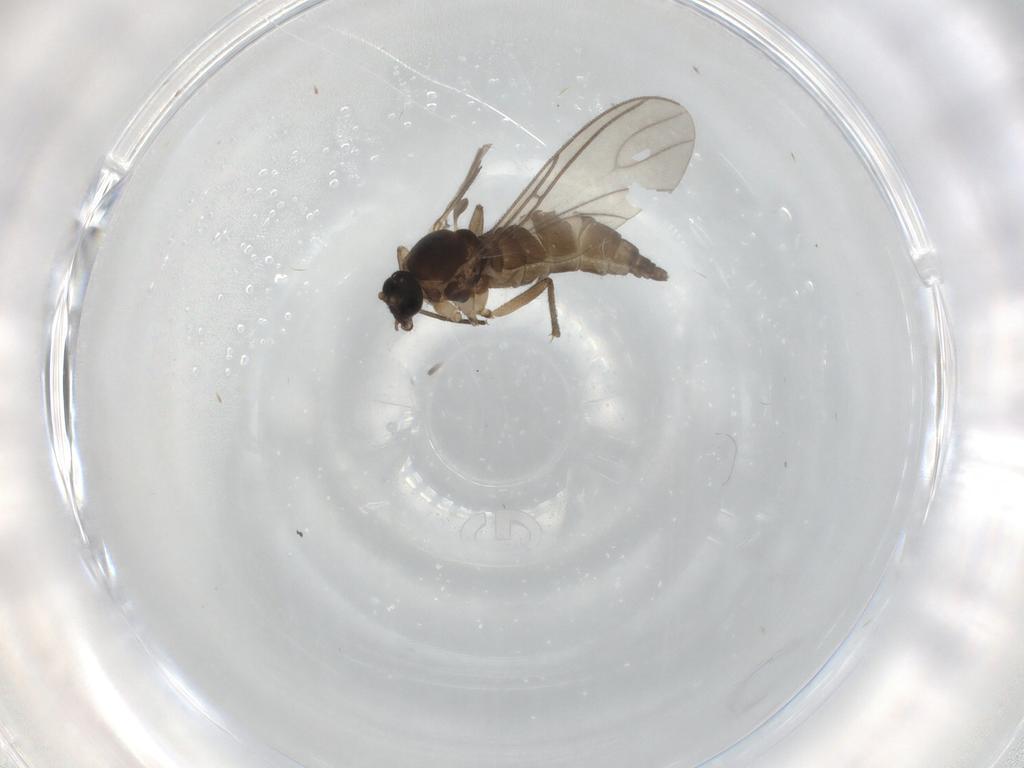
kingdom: Animalia
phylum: Arthropoda
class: Insecta
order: Diptera
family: Sciaridae
